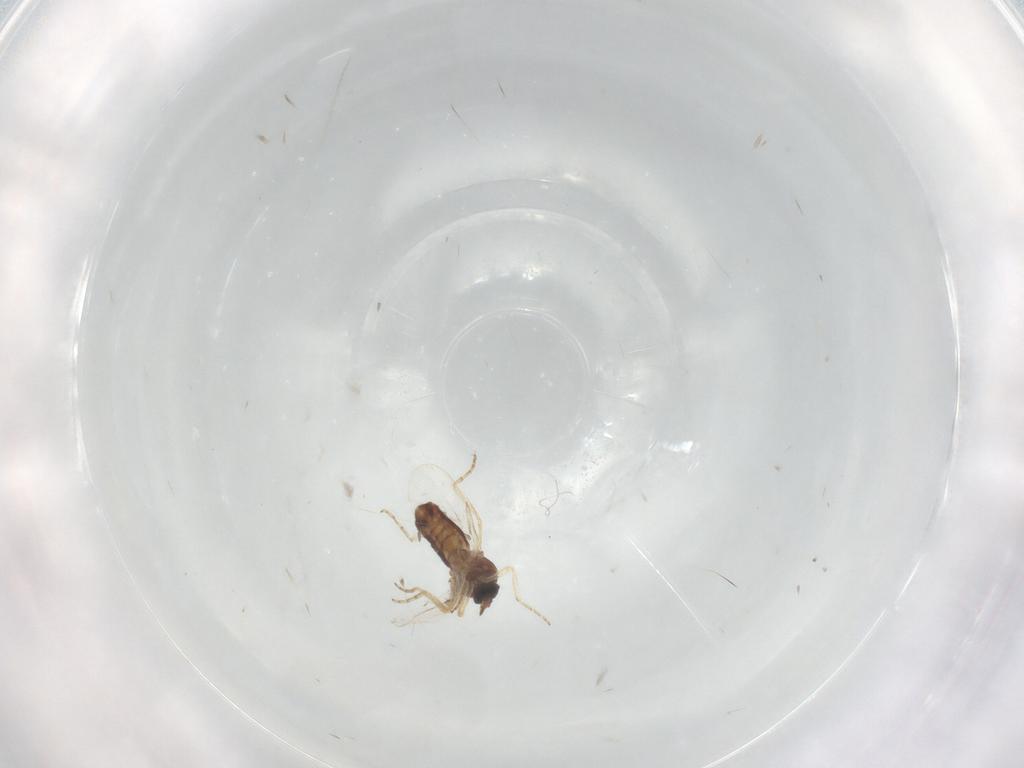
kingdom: Animalia
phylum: Arthropoda
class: Insecta
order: Diptera
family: Ceratopogonidae
